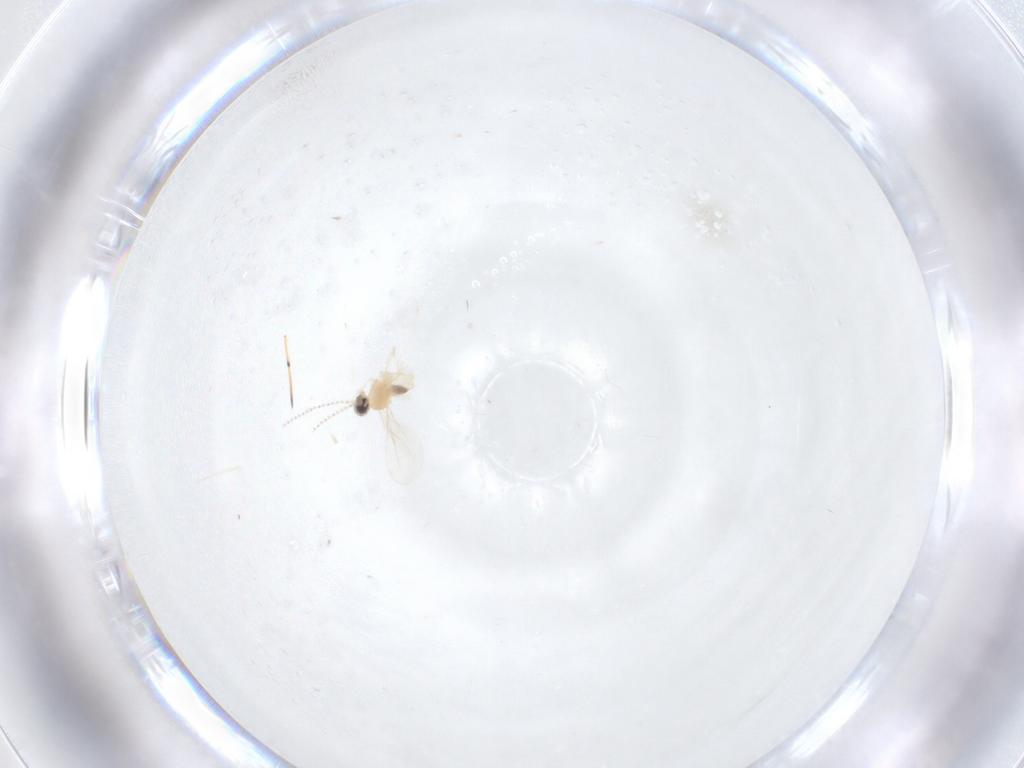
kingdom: Animalia
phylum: Arthropoda
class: Insecta
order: Diptera
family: Cecidomyiidae
